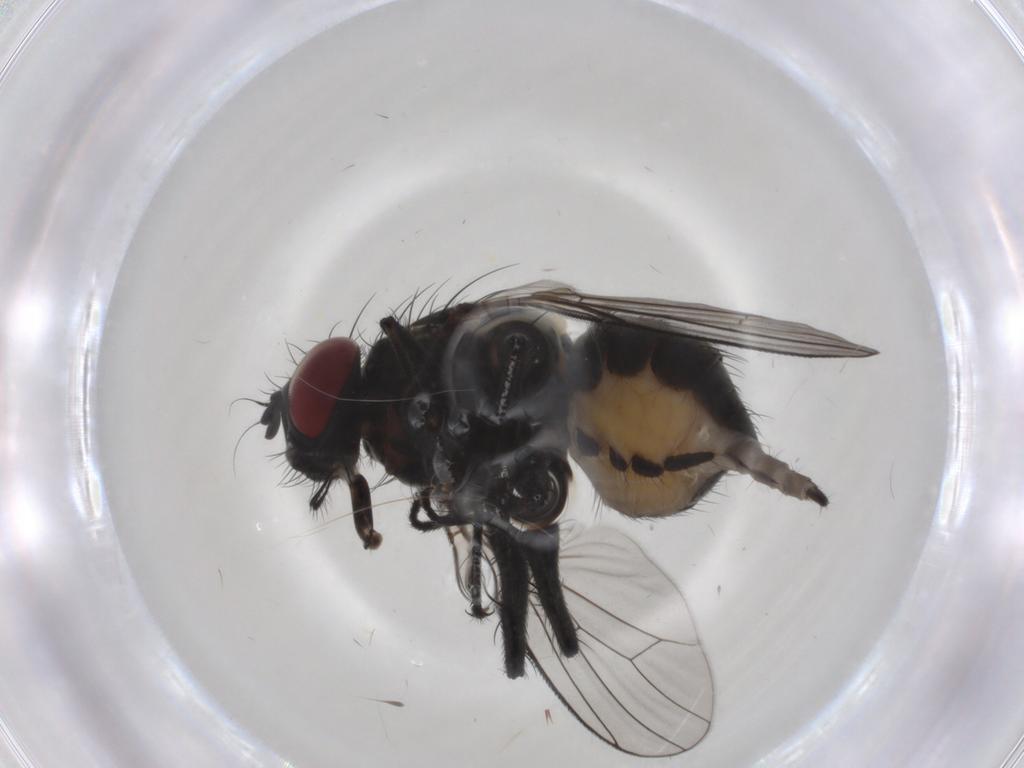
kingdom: Animalia
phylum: Arthropoda
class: Insecta
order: Diptera
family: Muscidae
